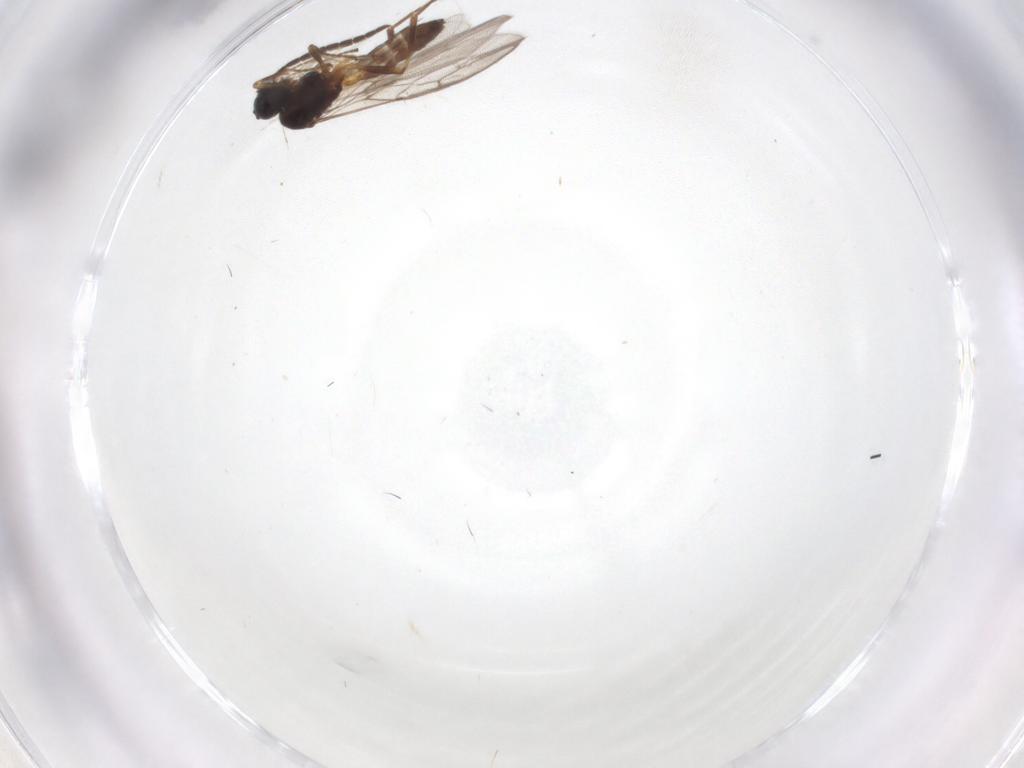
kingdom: Animalia
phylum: Arthropoda
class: Insecta
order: Hymenoptera
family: Braconidae
